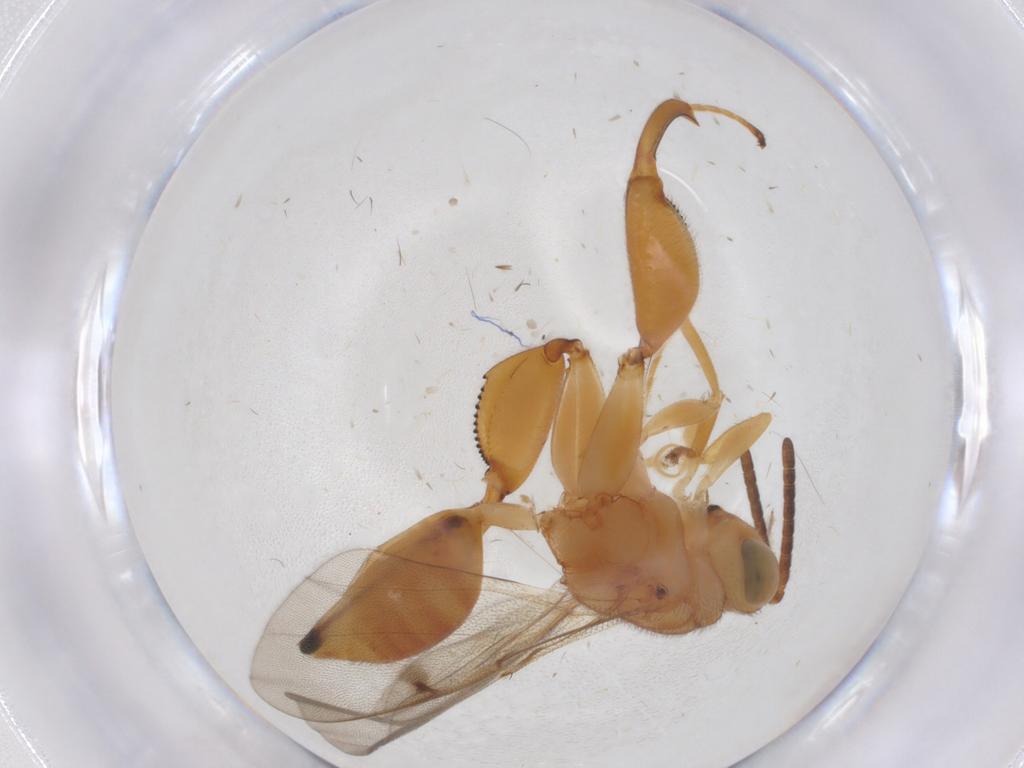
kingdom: Animalia
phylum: Arthropoda
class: Insecta
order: Hymenoptera
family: Chalcididae
